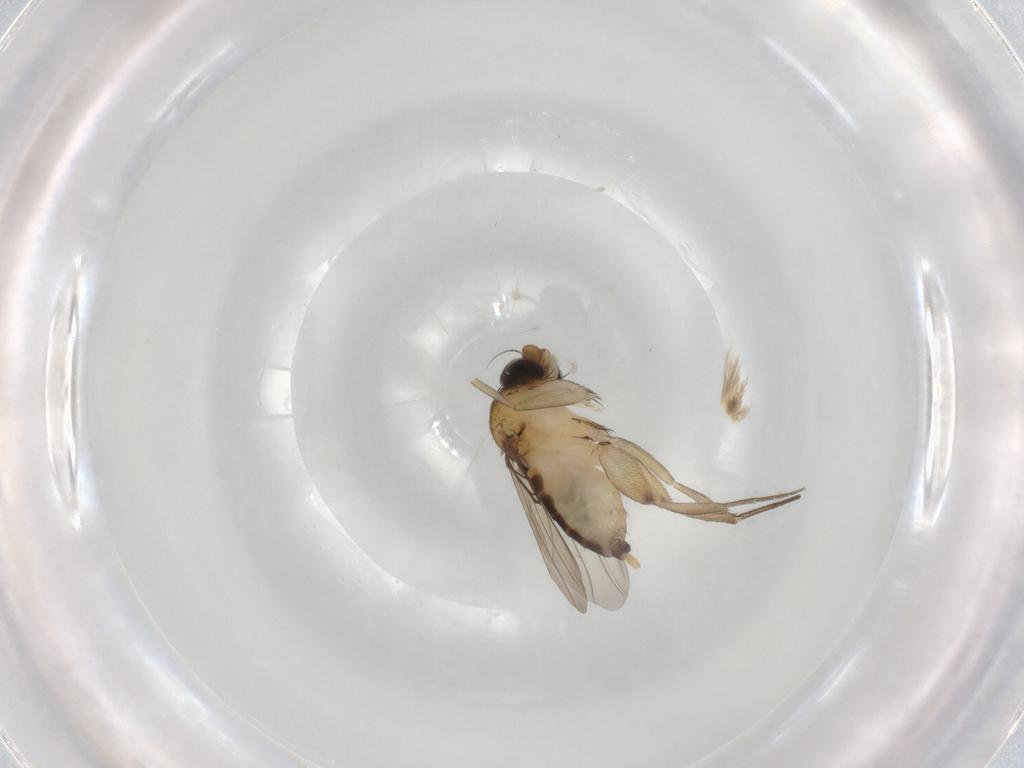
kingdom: Animalia
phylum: Arthropoda
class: Insecta
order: Diptera
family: Phoridae
